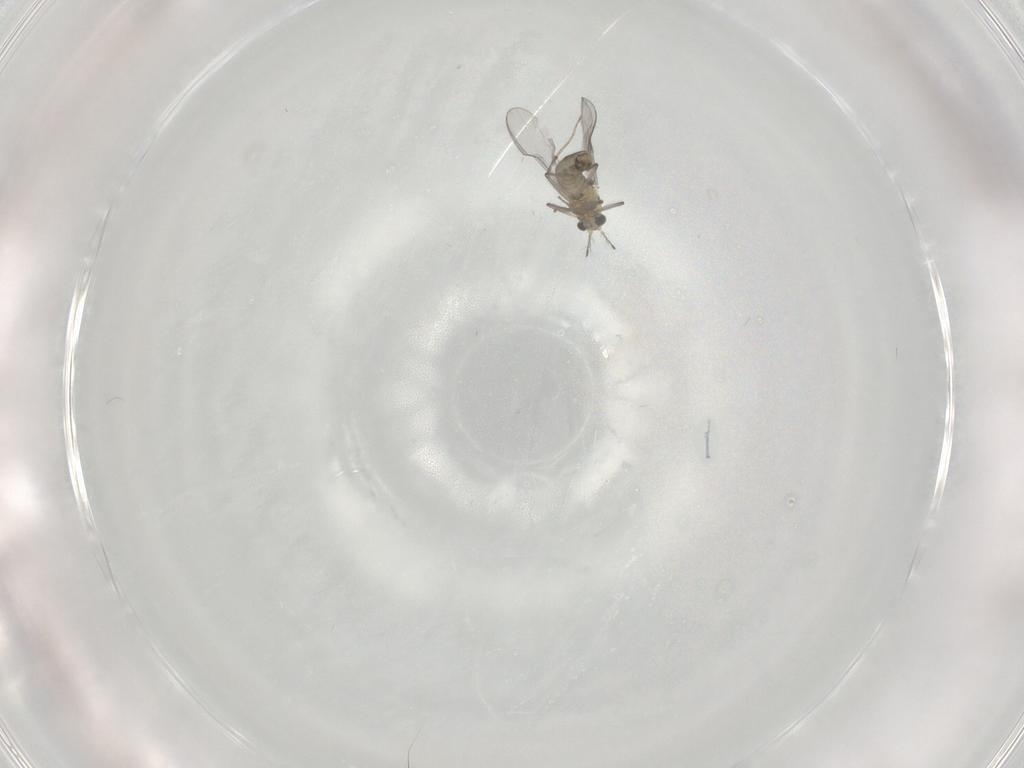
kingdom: Animalia
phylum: Arthropoda
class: Insecta
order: Diptera
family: Chironomidae
